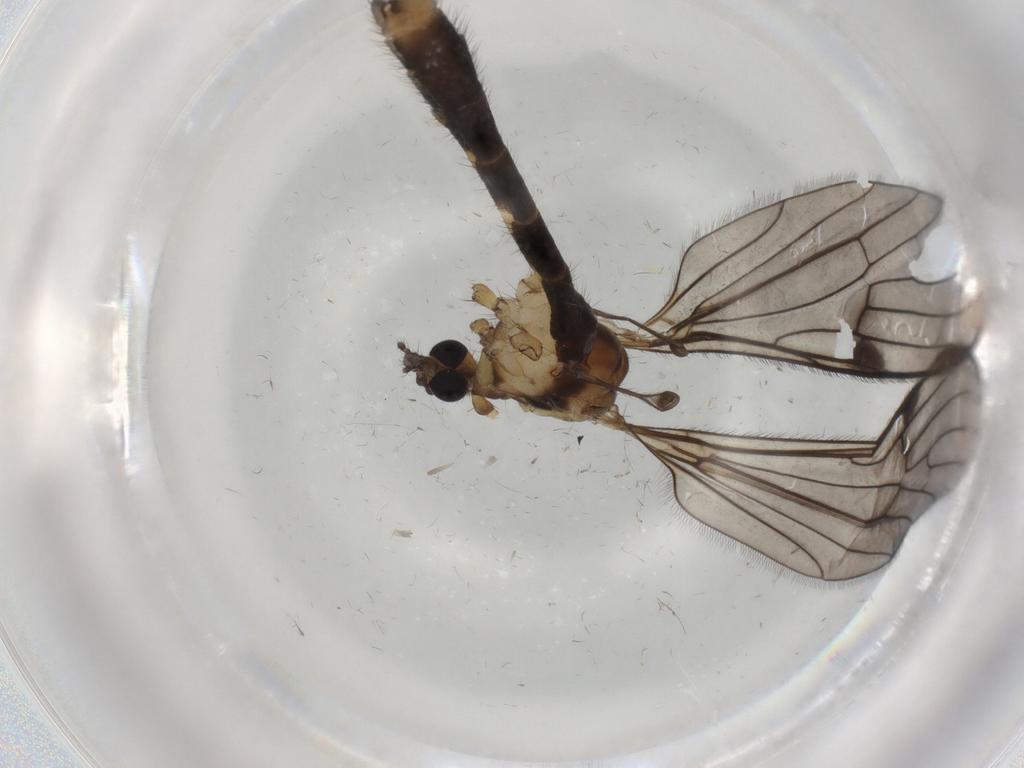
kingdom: Animalia
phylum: Arthropoda
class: Insecta
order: Diptera
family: Limoniidae
